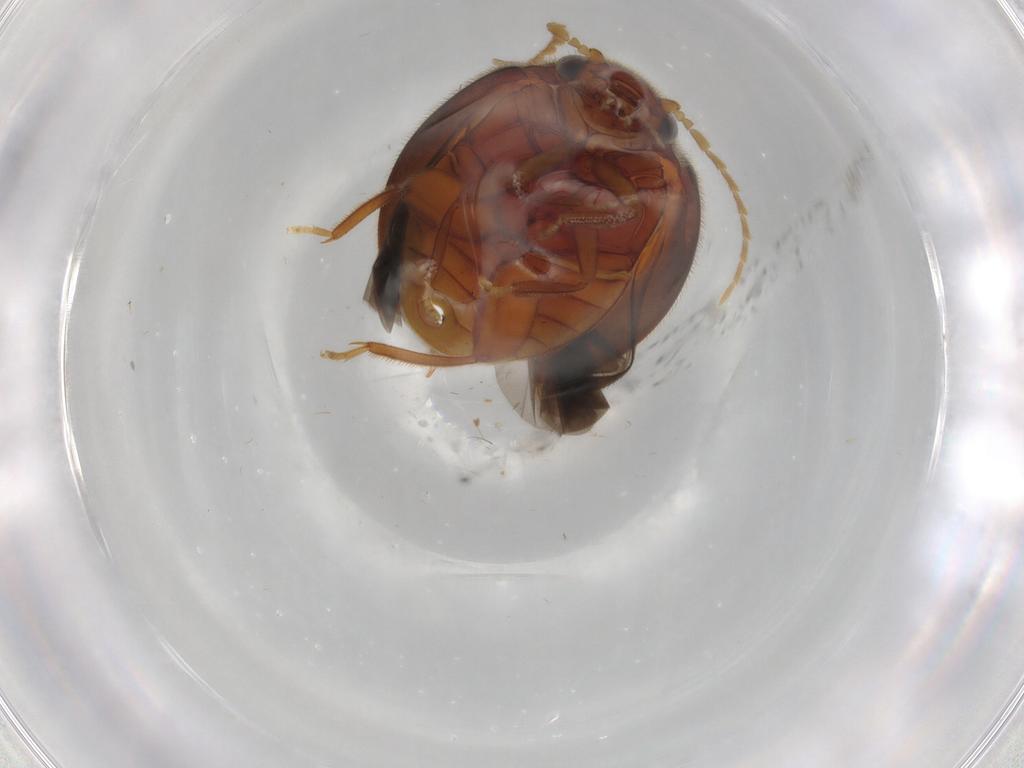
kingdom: Animalia
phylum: Arthropoda
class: Insecta
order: Coleoptera
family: Scirtidae
